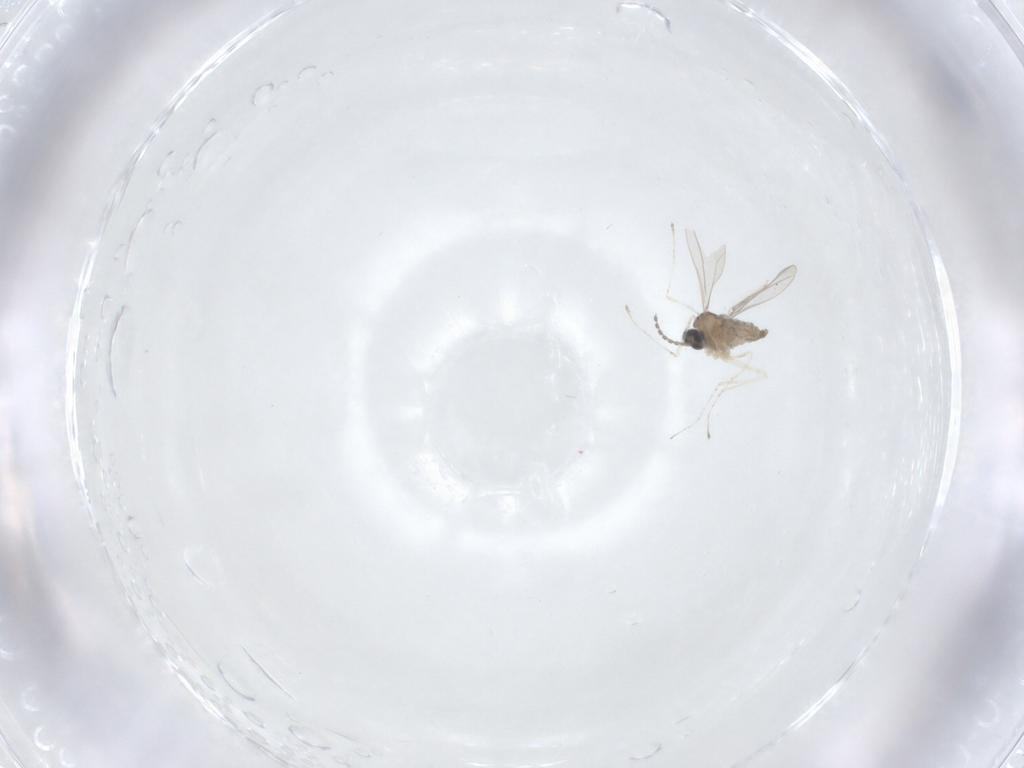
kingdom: Animalia
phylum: Arthropoda
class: Insecta
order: Diptera
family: Cecidomyiidae
